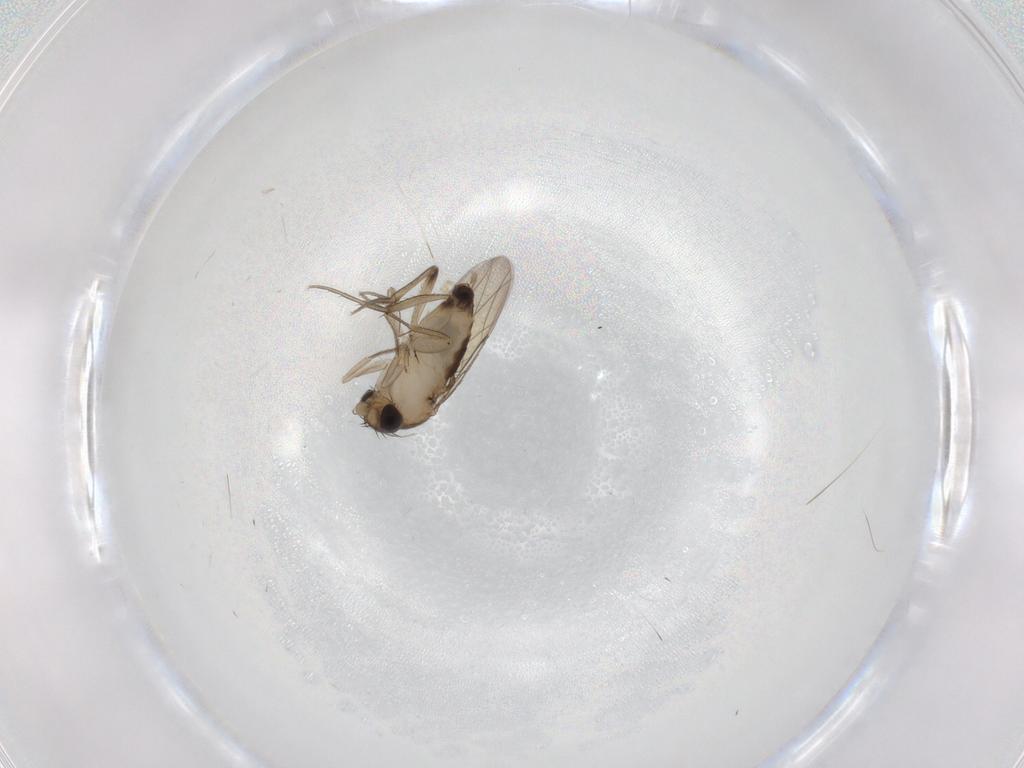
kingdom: Animalia
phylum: Arthropoda
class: Insecta
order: Diptera
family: Phoridae
